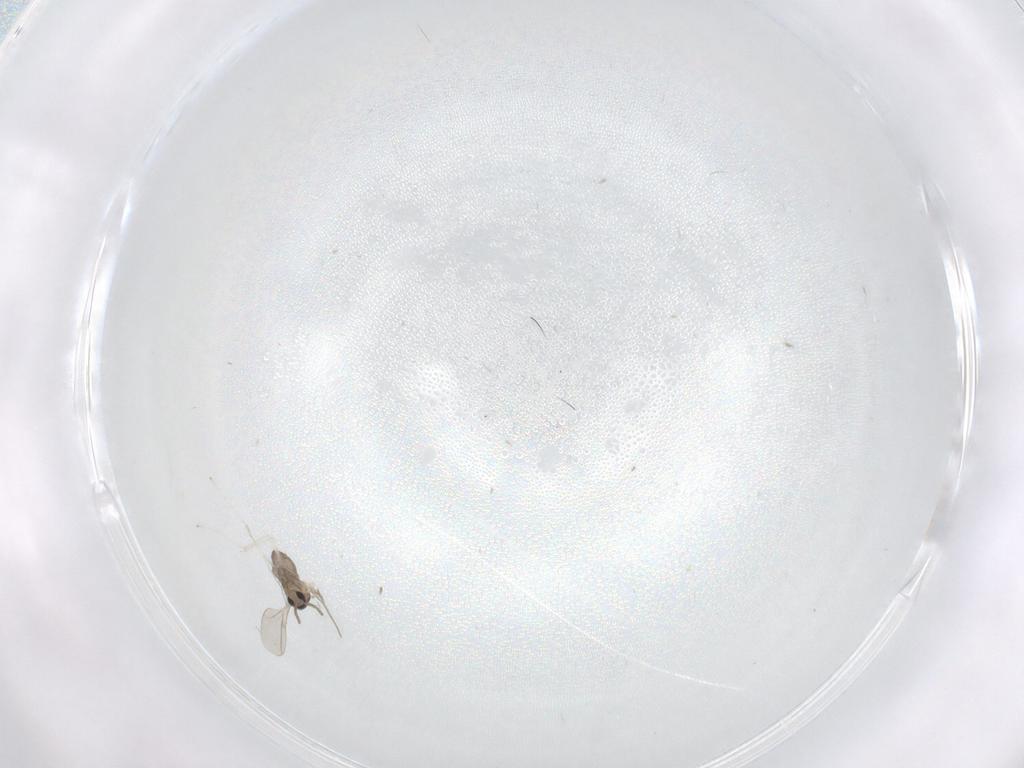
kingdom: Animalia
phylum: Arthropoda
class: Insecta
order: Diptera
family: Cecidomyiidae
